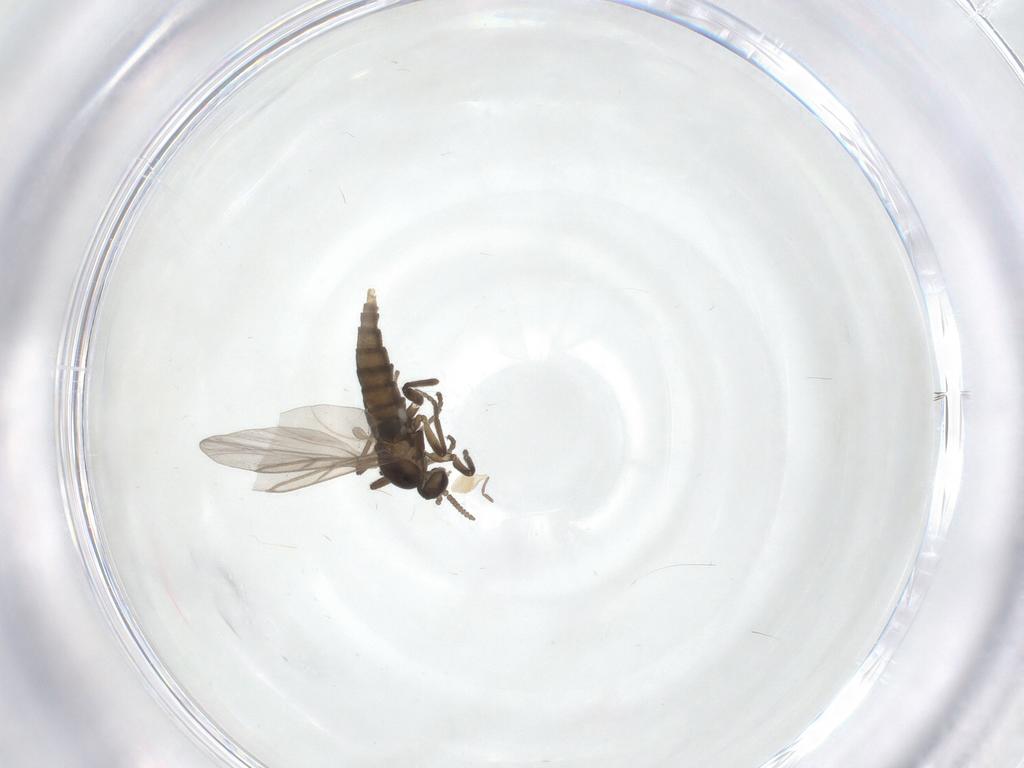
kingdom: Animalia
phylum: Arthropoda
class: Insecta
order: Diptera
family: Cecidomyiidae
